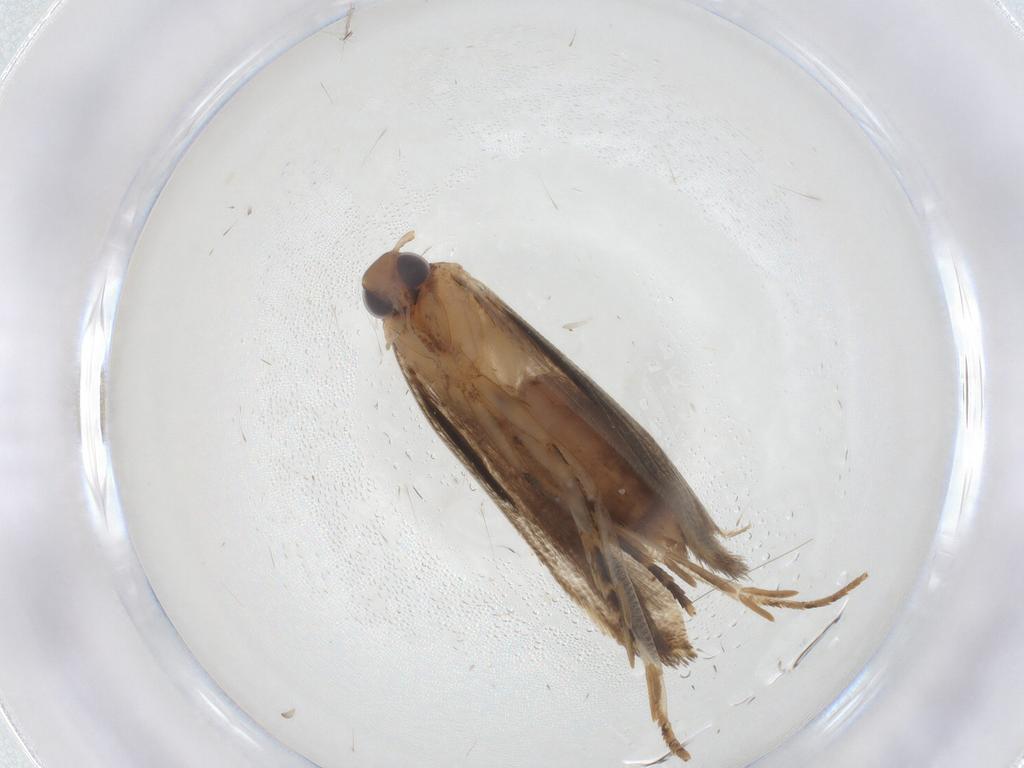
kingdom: Animalia
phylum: Arthropoda
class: Insecta
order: Lepidoptera
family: Gelechiidae
